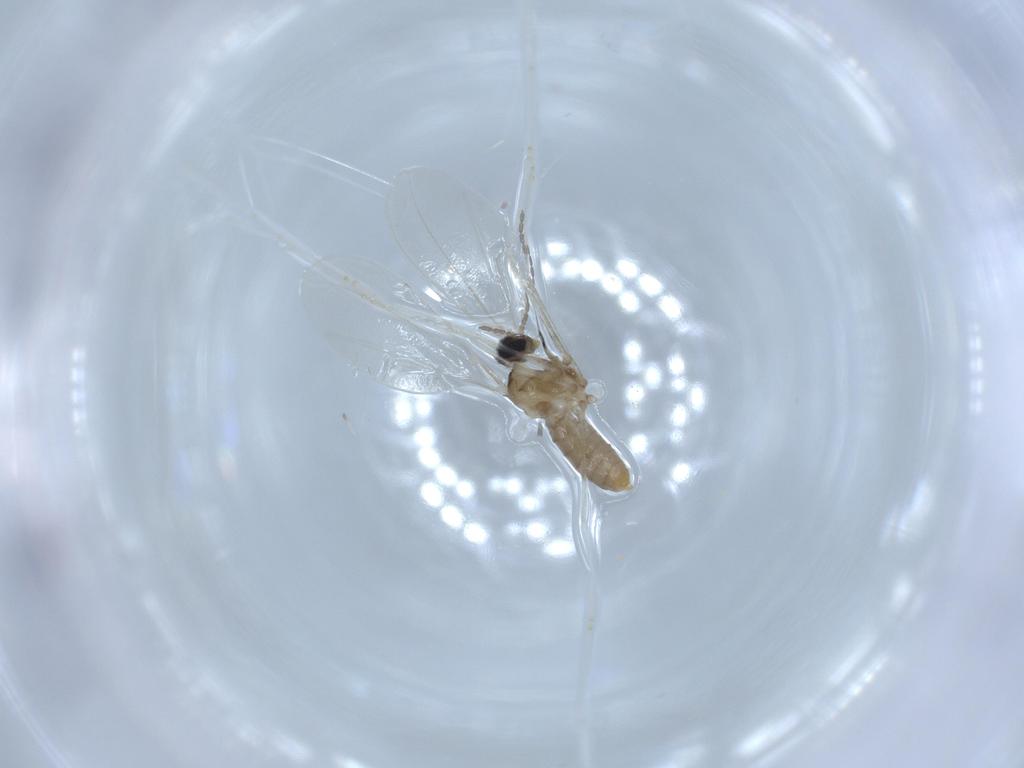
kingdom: Animalia
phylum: Arthropoda
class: Insecta
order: Diptera
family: Cecidomyiidae
